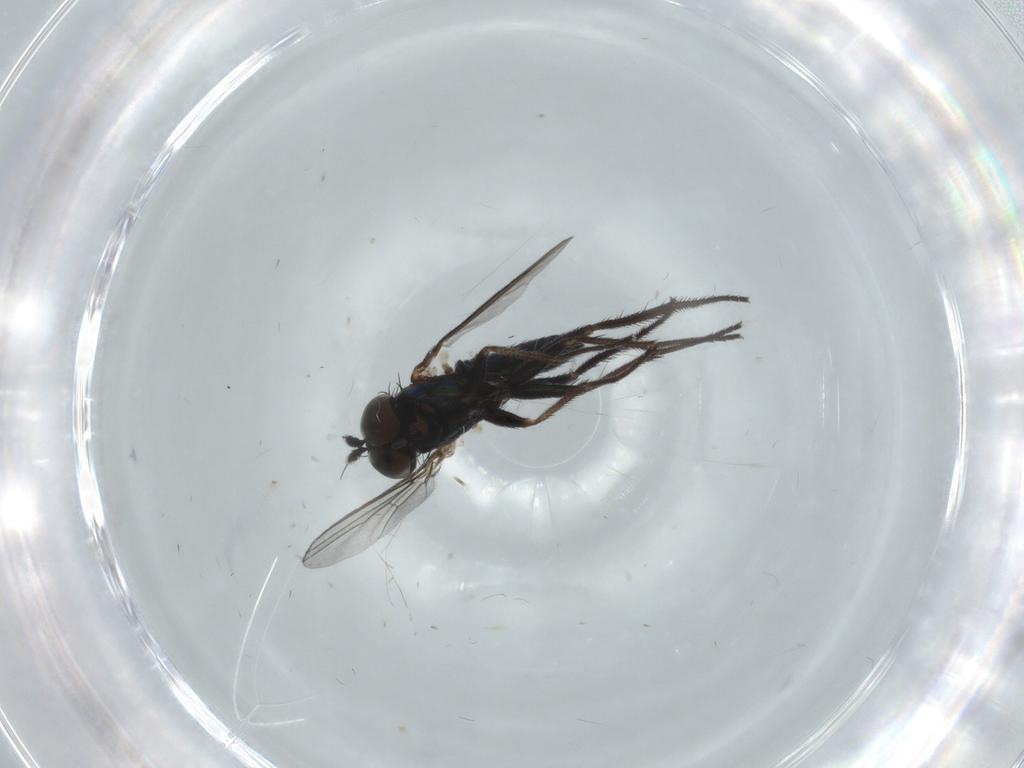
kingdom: Animalia
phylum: Arthropoda
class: Insecta
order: Diptera
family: Dolichopodidae
